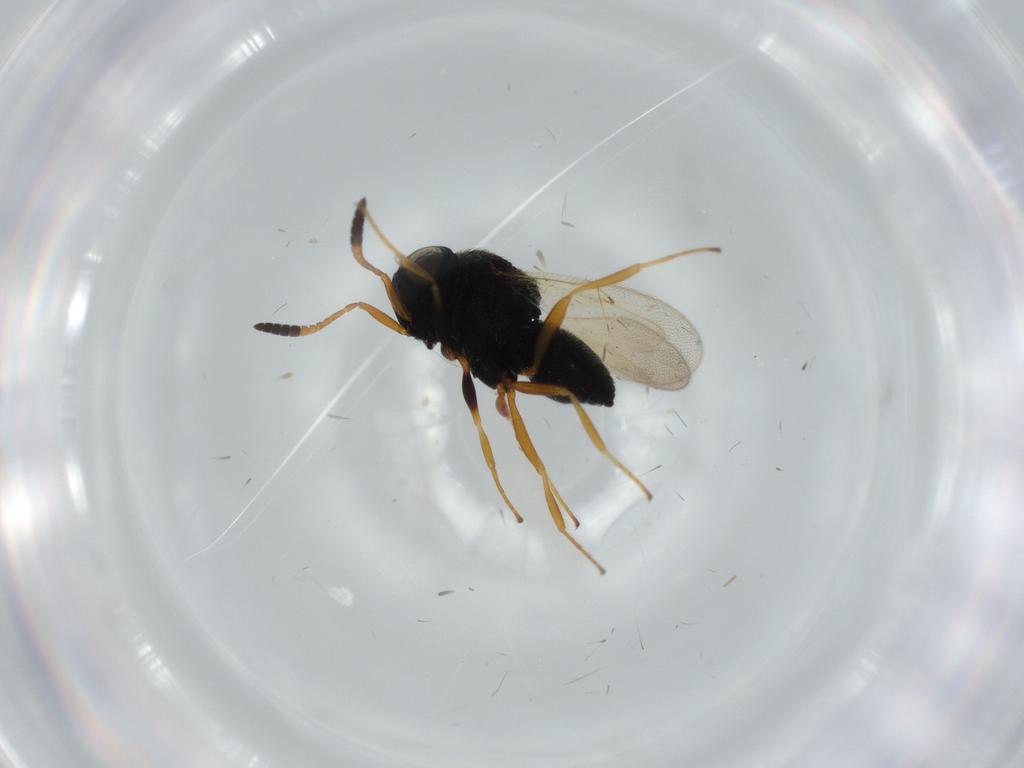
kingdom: Animalia
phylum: Arthropoda
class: Insecta
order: Hymenoptera
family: Scelionidae
